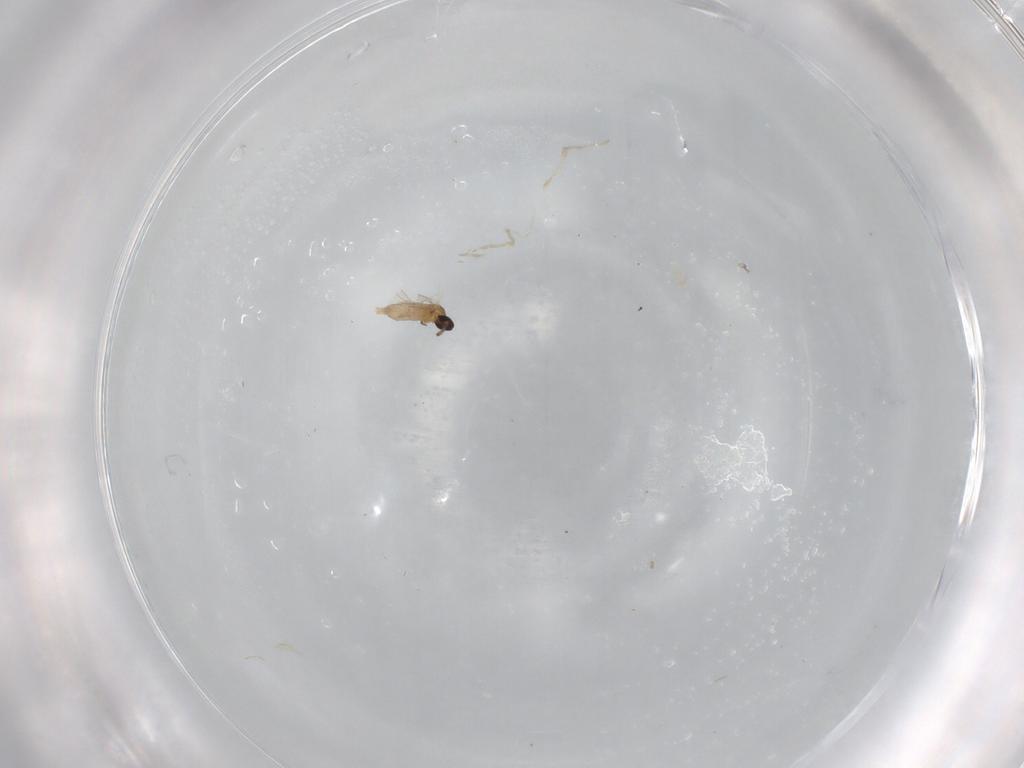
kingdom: Animalia
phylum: Arthropoda
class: Insecta
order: Diptera
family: Cecidomyiidae
